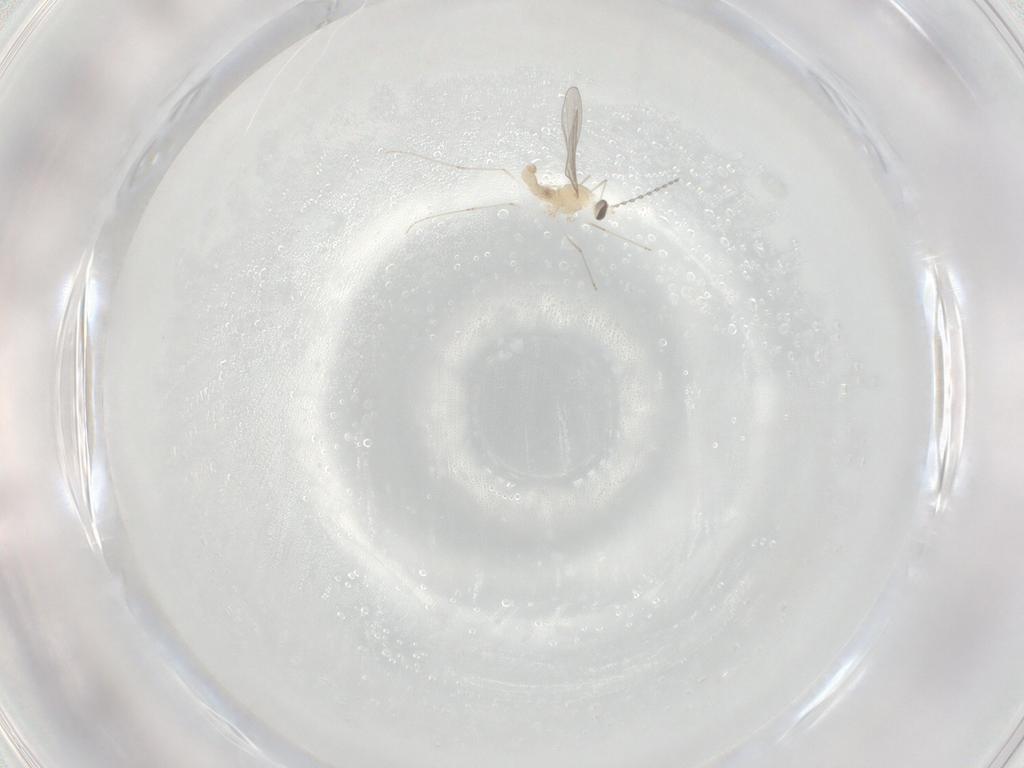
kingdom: Animalia
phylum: Arthropoda
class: Insecta
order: Diptera
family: Cecidomyiidae
